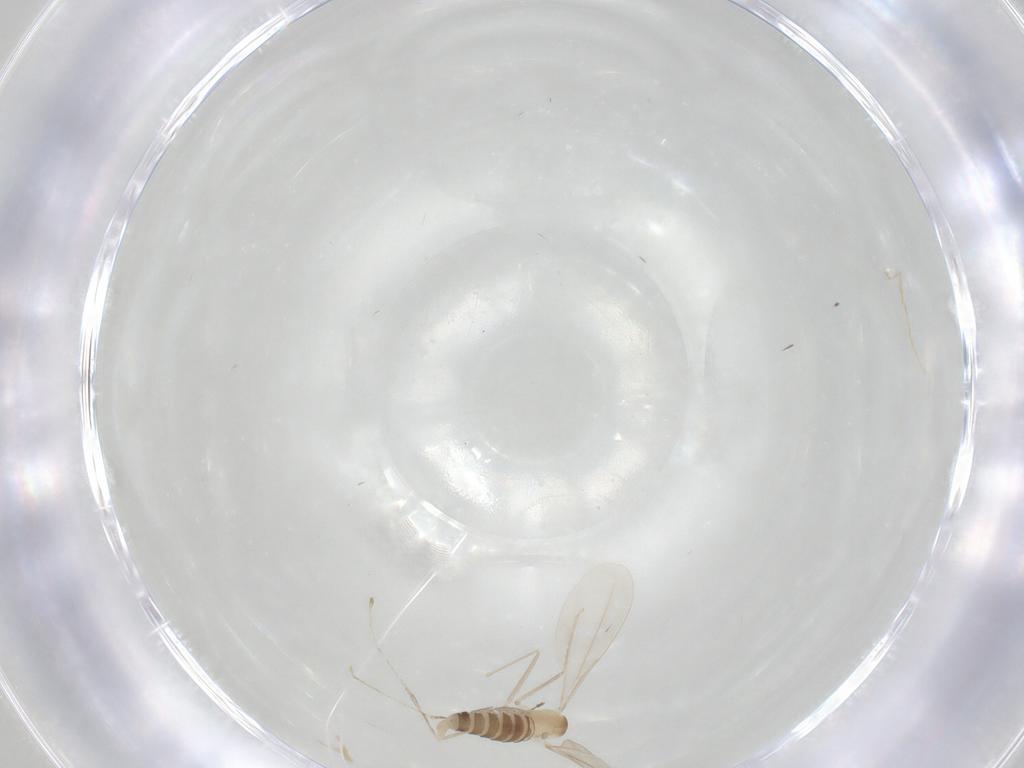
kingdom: Animalia
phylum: Arthropoda
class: Insecta
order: Diptera
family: Cecidomyiidae
